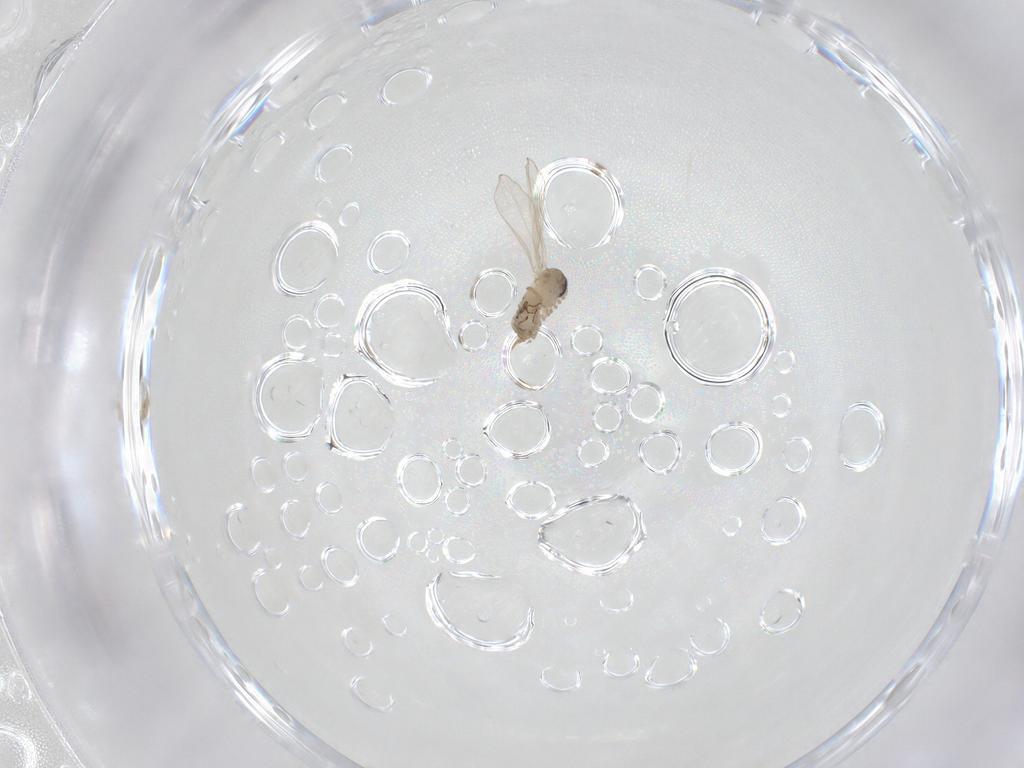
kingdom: Animalia
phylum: Arthropoda
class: Insecta
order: Diptera
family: Psychodidae
